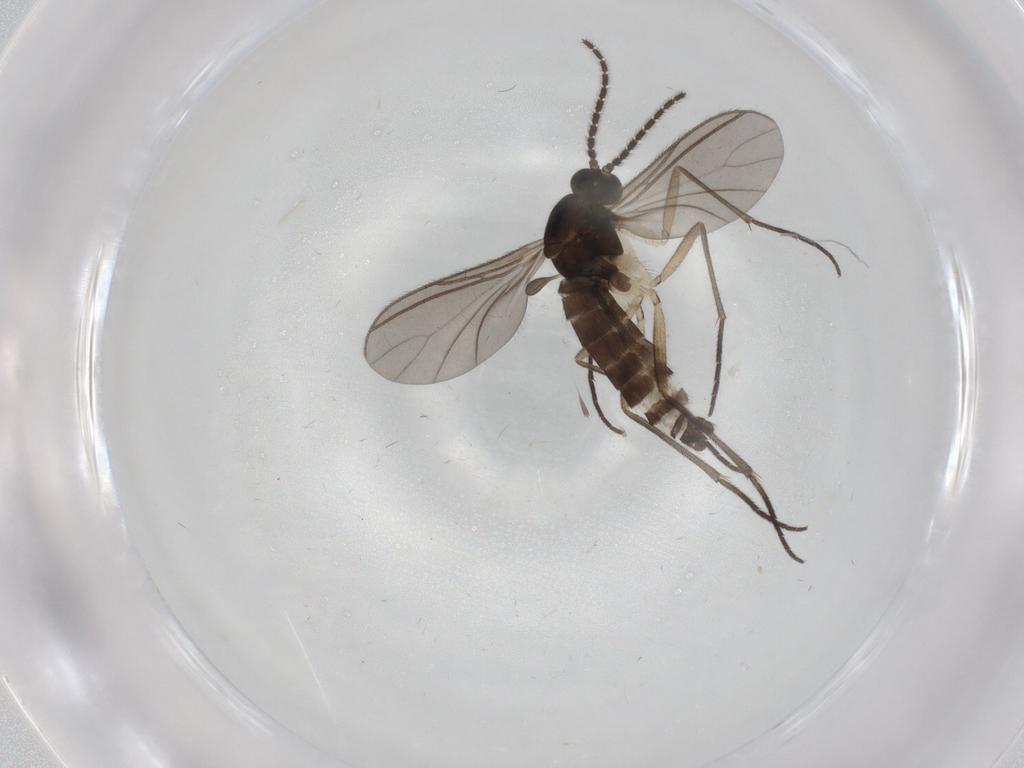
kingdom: Animalia
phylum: Arthropoda
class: Insecta
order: Diptera
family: Sciaridae
